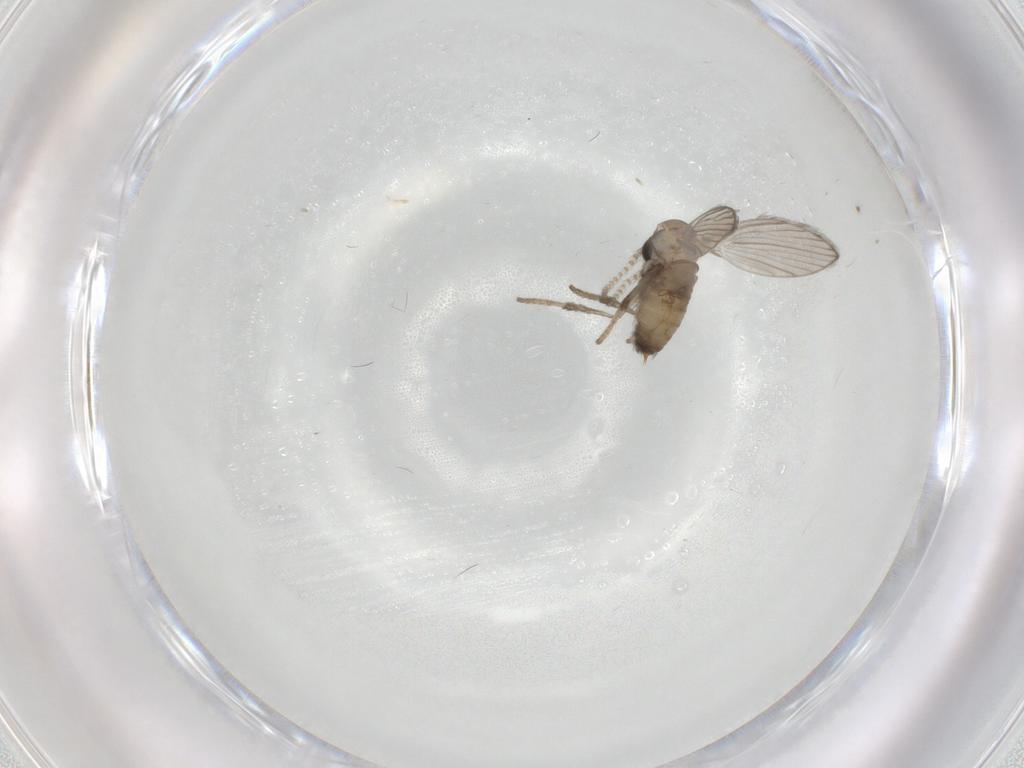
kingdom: Animalia
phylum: Arthropoda
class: Insecta
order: Diptera
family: Psychodidae
